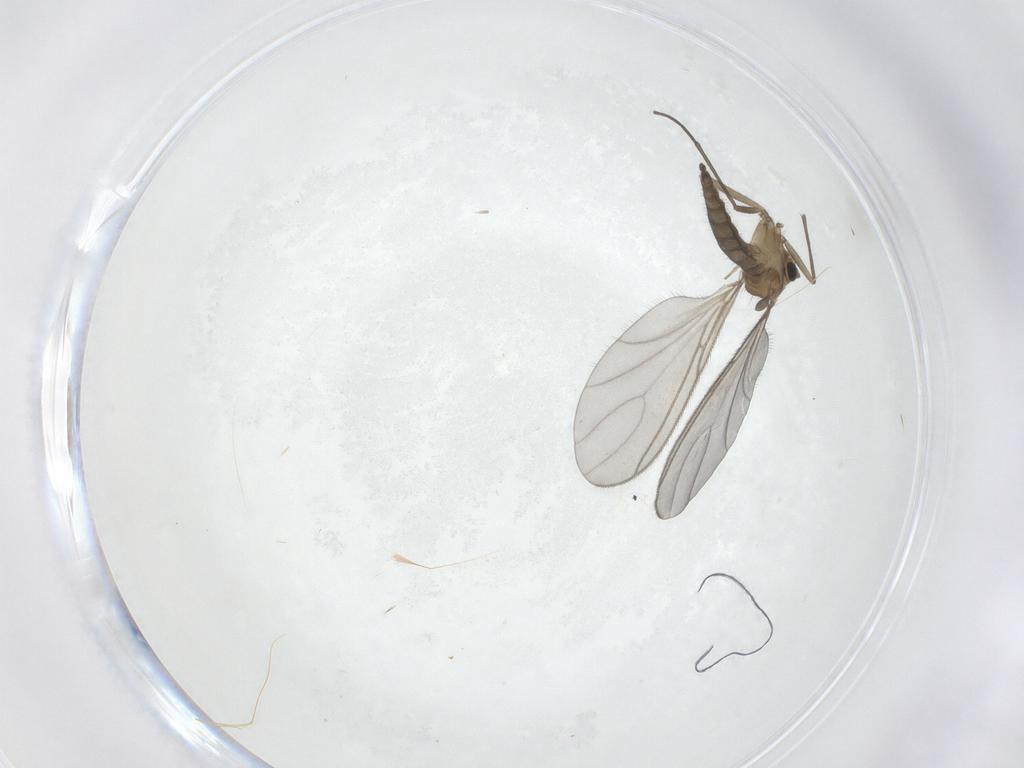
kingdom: Animalia
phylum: Arthropoda
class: Insecta
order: Diptera
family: Sciaridae
